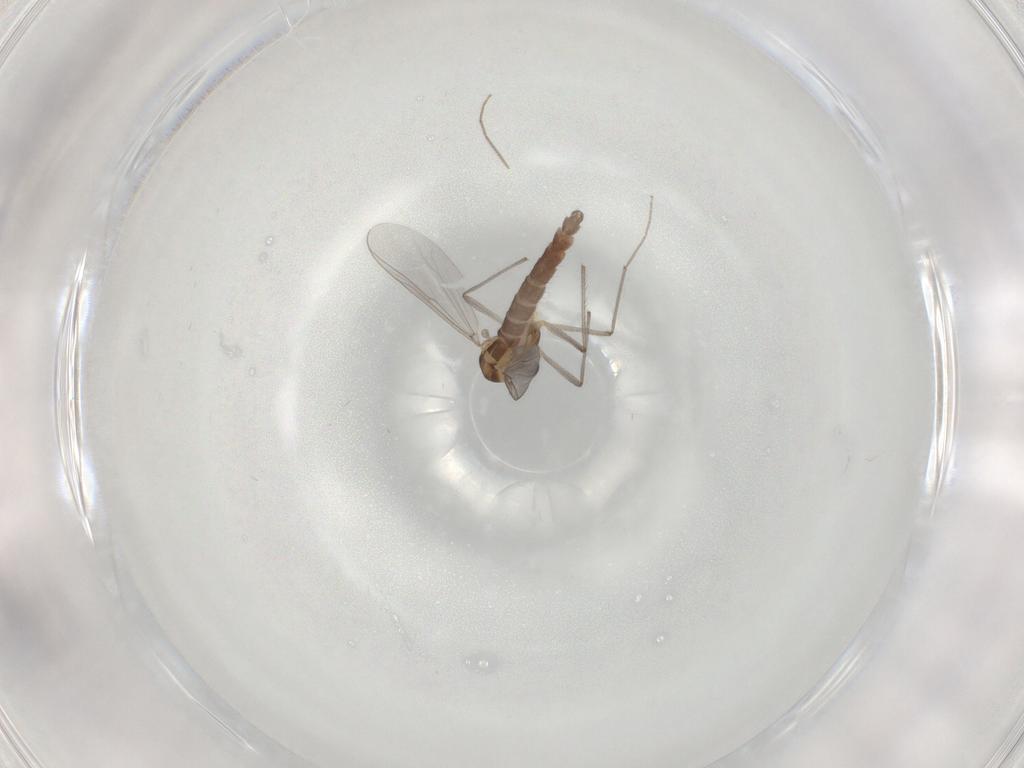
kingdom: Animalia
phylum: Arthropoda
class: Insecta
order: Diptera
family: Chironomidae
